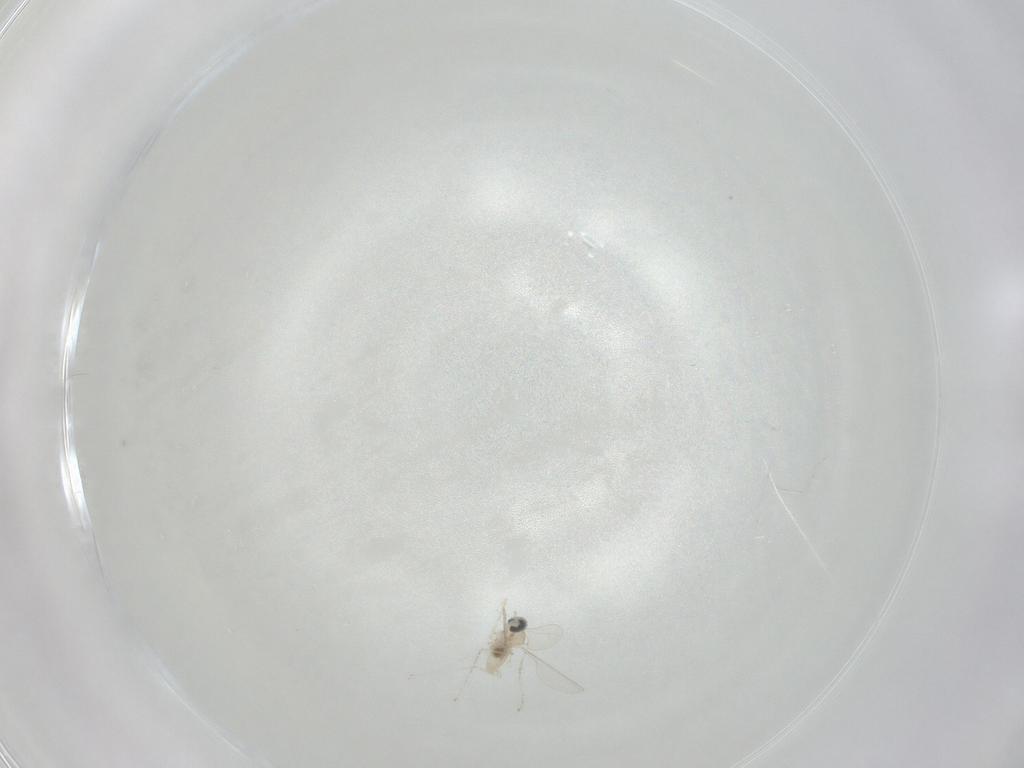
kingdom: Animalia
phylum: Arthropoda
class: Insecta
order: Diptera
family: Cecidomyiidae
